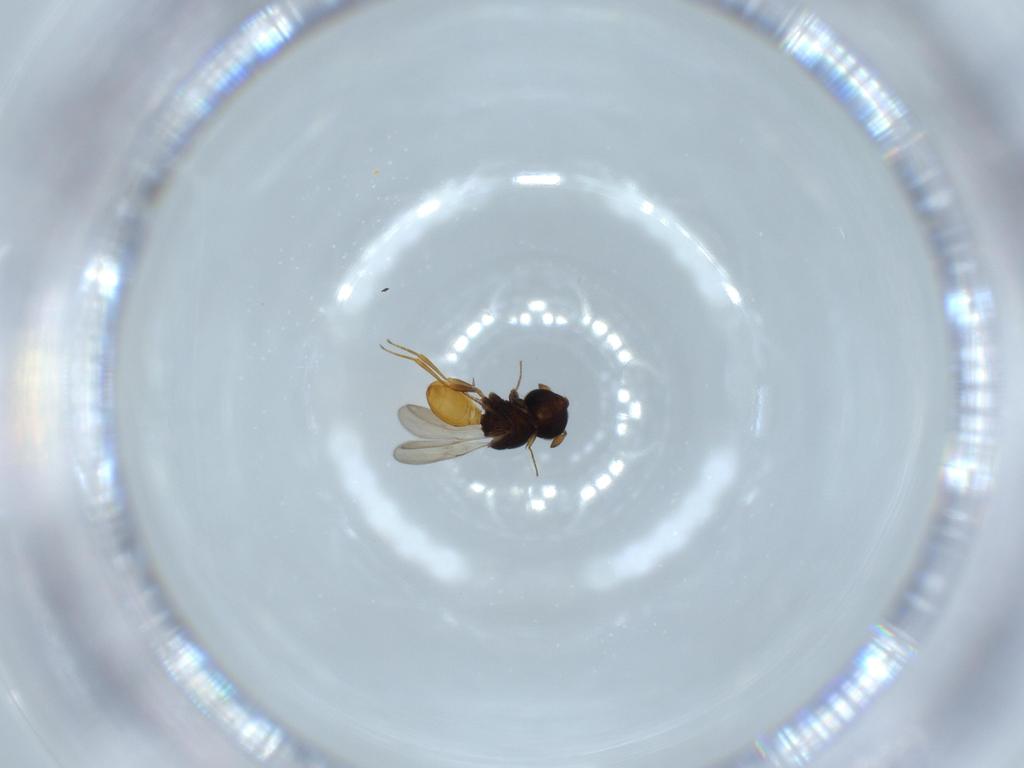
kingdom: Animalia
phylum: Arthropoda
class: Insecta
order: Hymenoptera
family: Scelionidae
